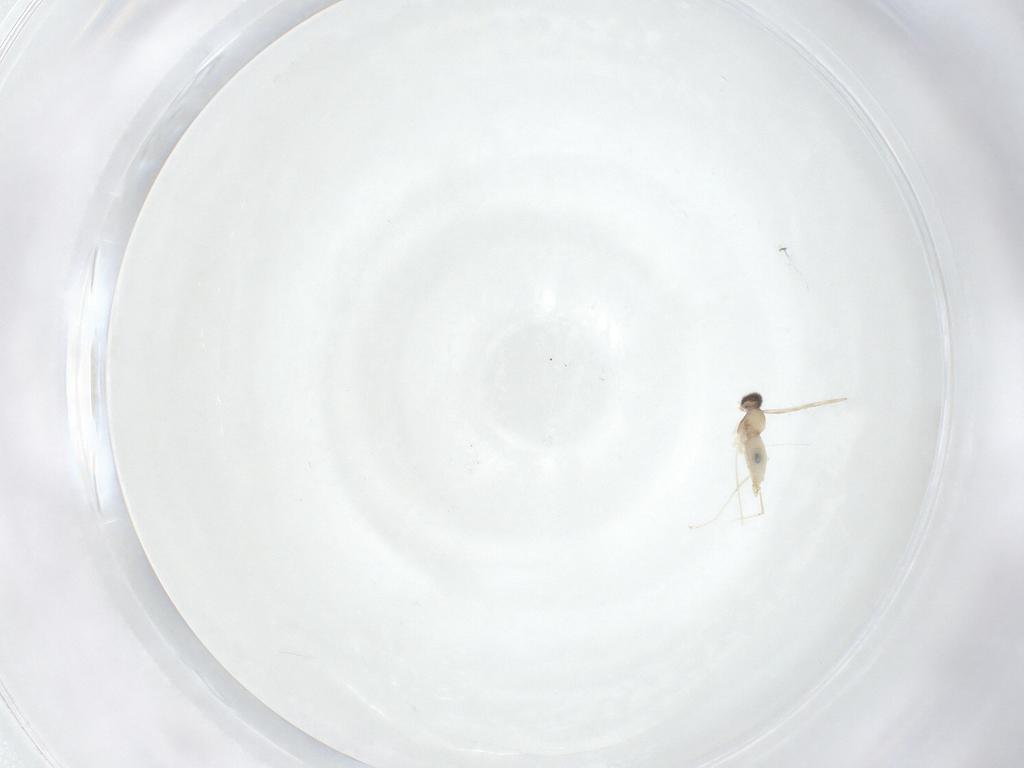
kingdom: Animalia
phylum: Arthropoda
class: Insecta
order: Diptera
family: Cecidomyiidae
